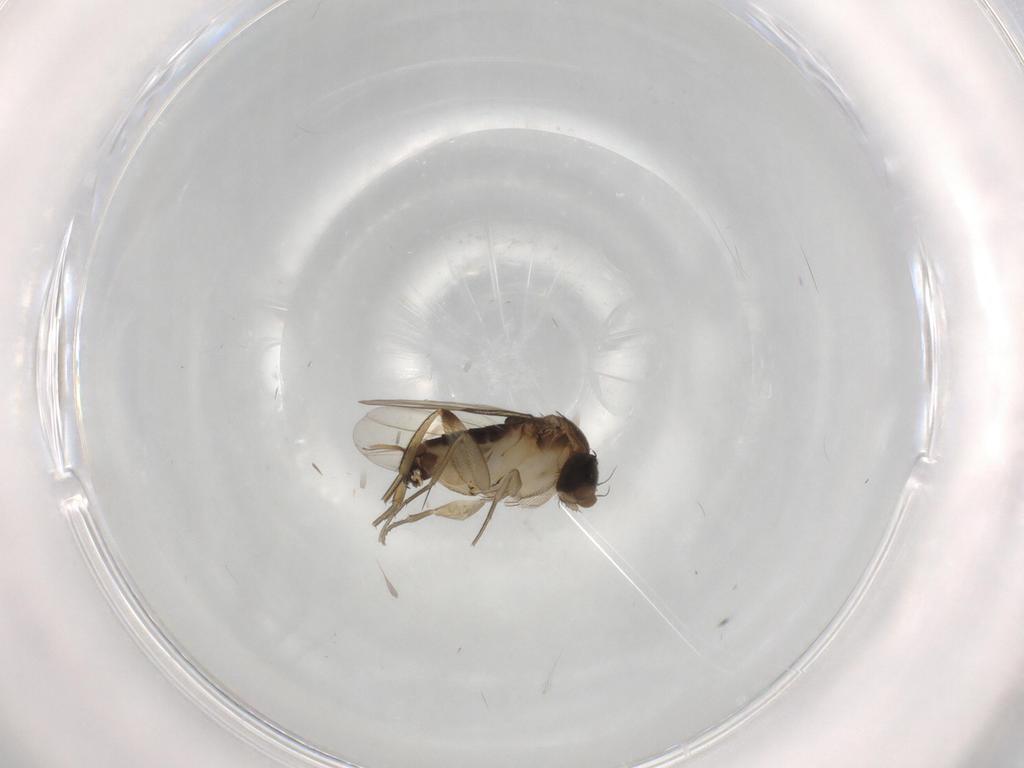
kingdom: Animalia
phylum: Arthropoda
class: Insecta
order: Diptera
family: Phoridae
